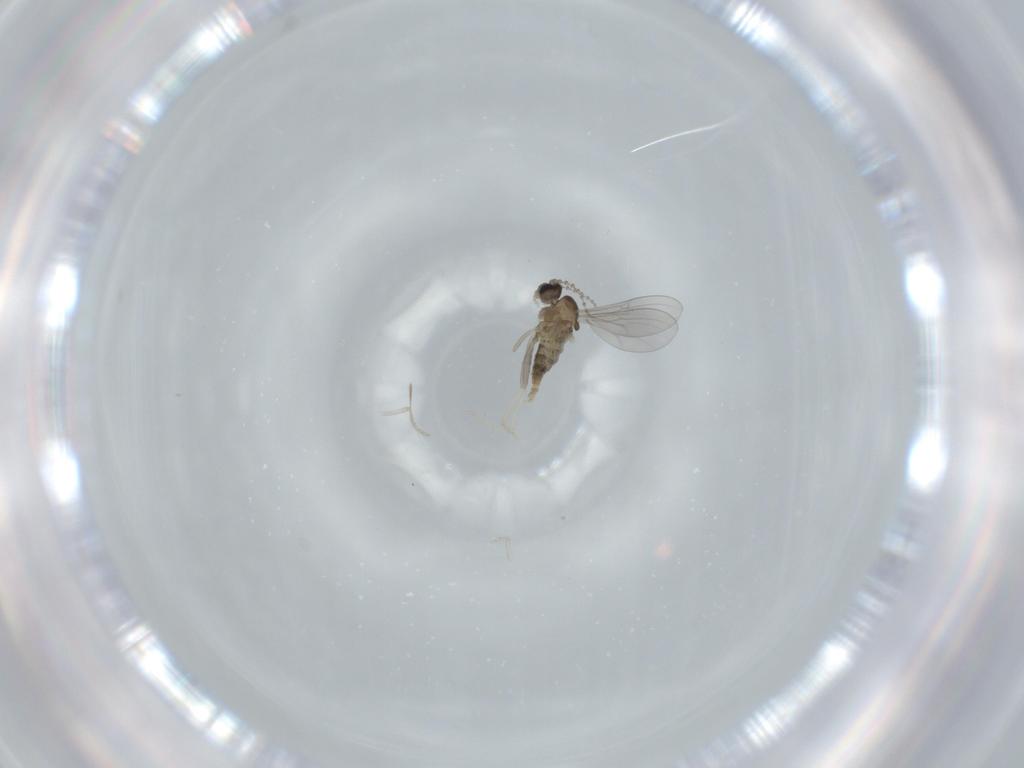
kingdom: Animalia
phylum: Arthropoda
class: Insecta
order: Diptera
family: Cecidomyiidae
